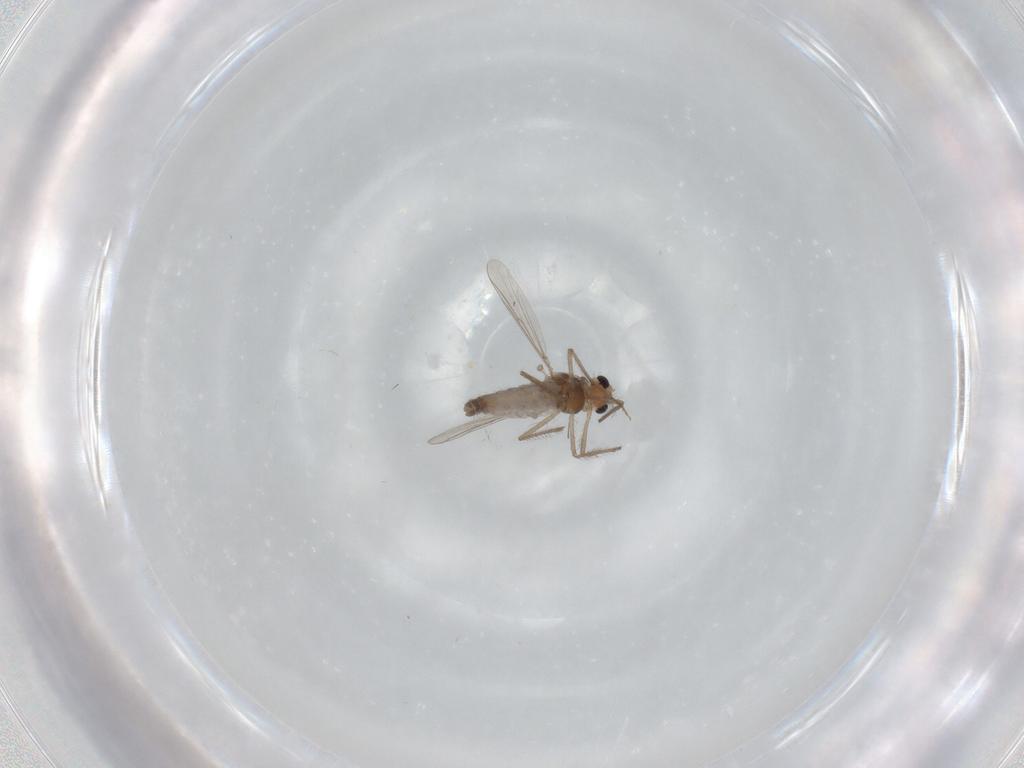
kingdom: Animalia
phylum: Arthropoda
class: Insecta
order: Diptera
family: Chironomidae
